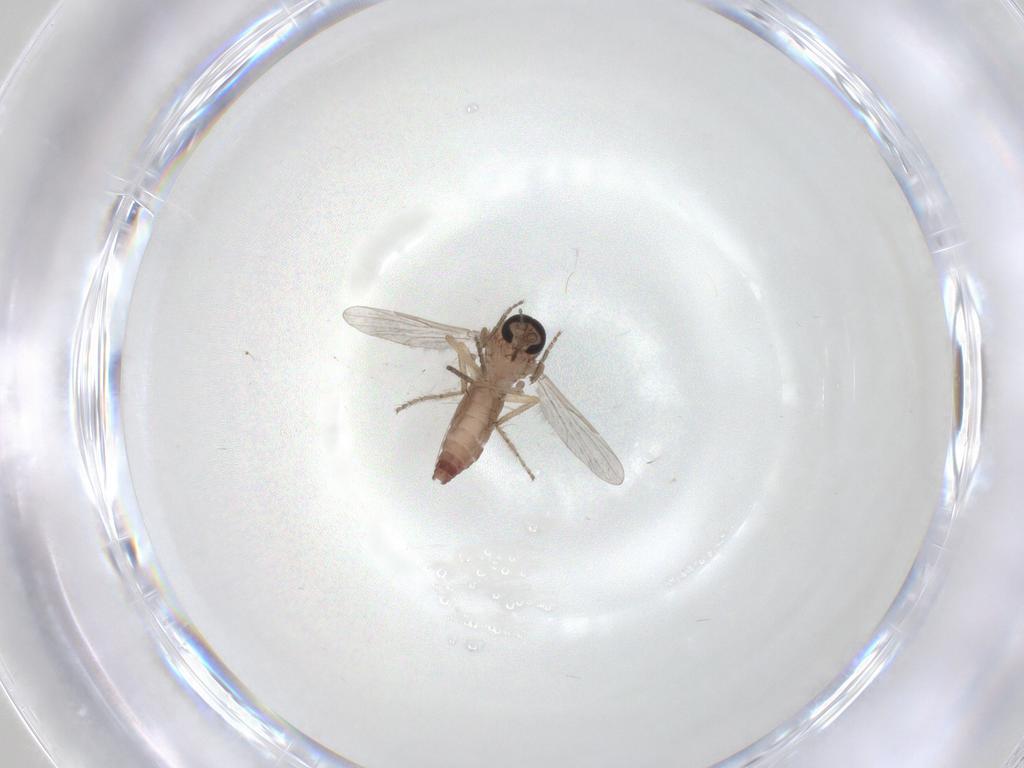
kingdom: Animalia
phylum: Arthropoda
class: Insecta
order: Diptera
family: Ceratopogonidae
